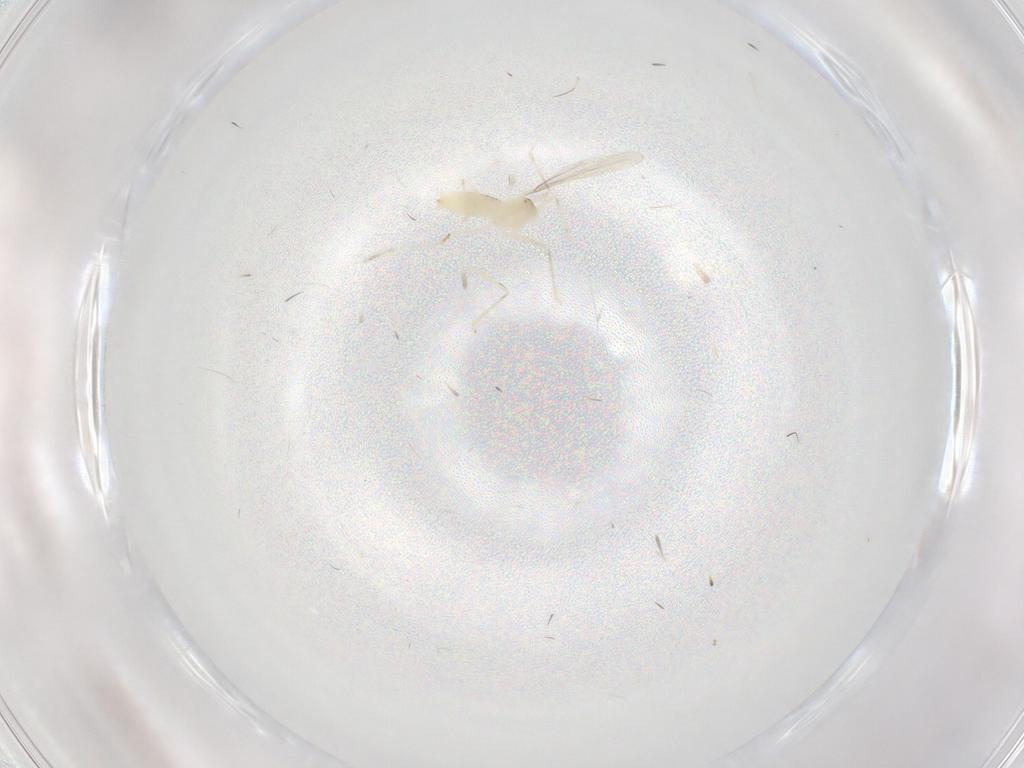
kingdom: Animalia
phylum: Arthropoda
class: Insecta
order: Diptera
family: Cecidomyiidae
